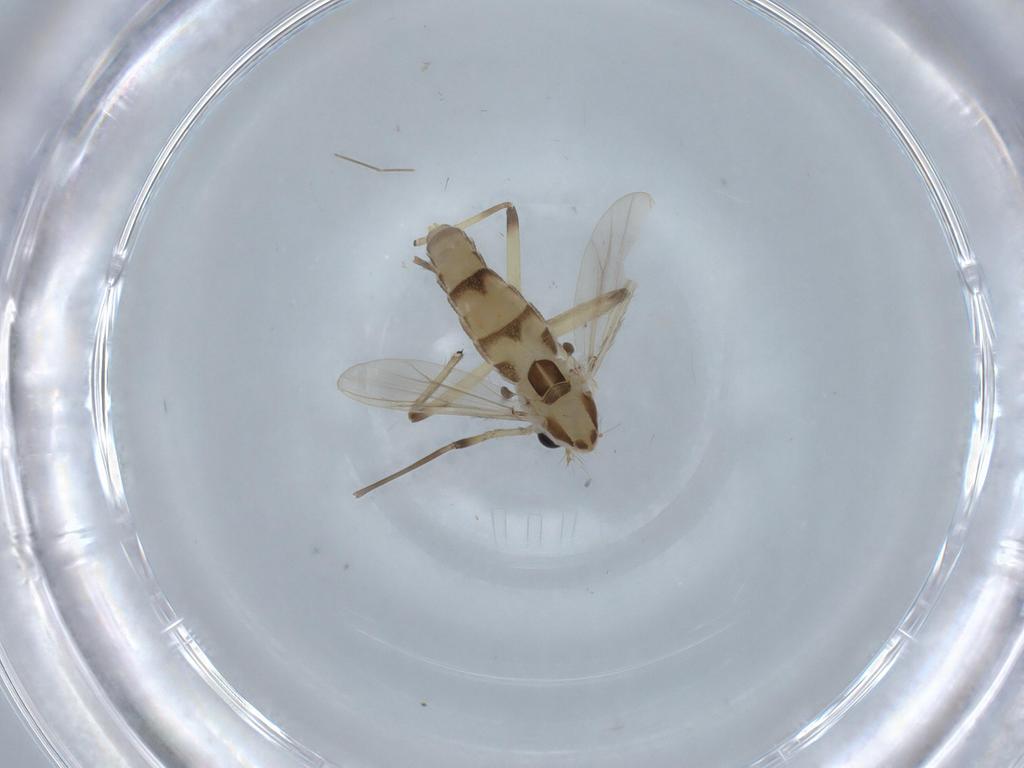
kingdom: Animalia
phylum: Arthropoda
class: Insecta
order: Diptera
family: Chironomidae
